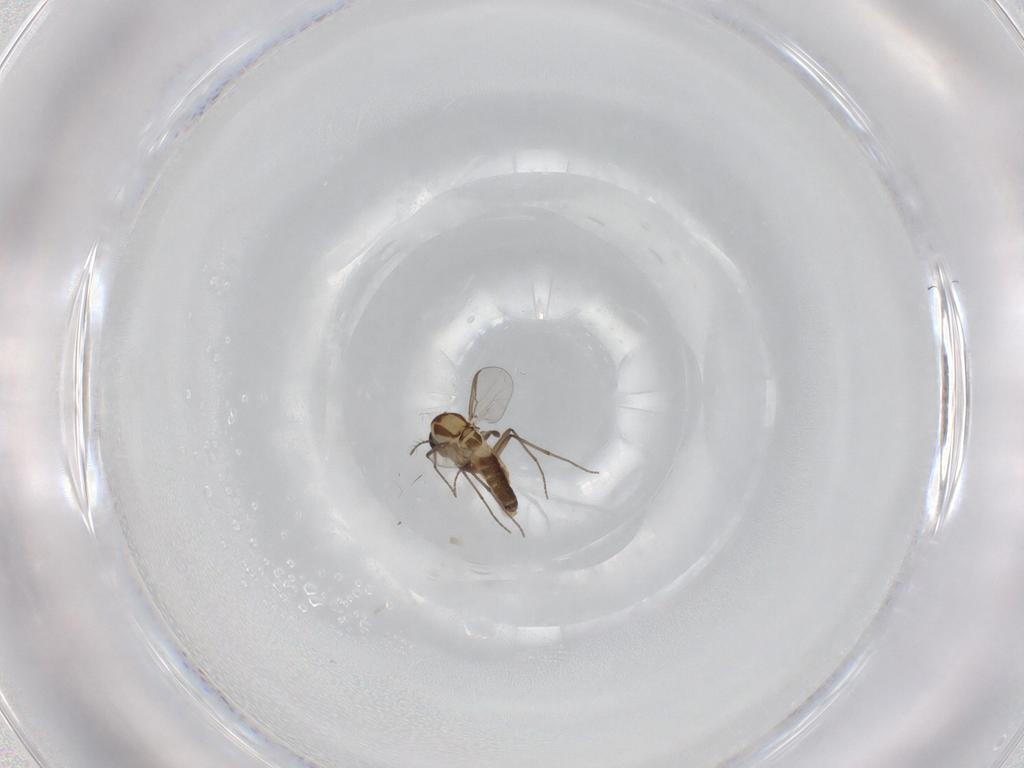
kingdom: Animalia
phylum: Arthropoda
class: Insecta
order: Diptera
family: Chironomidae
